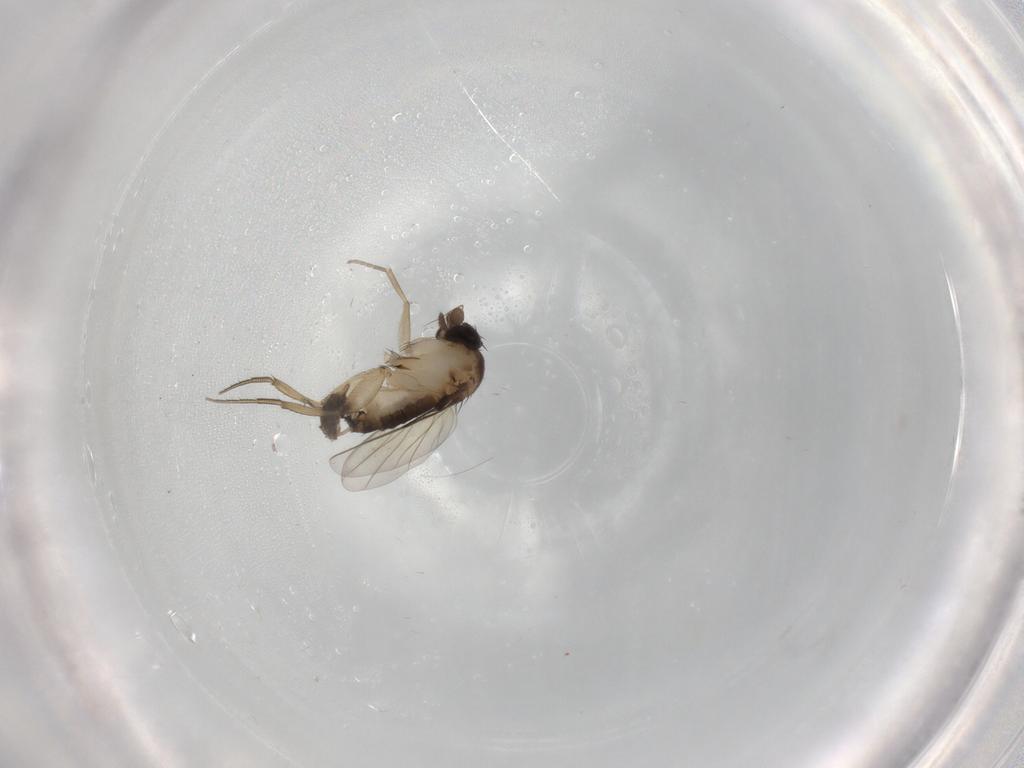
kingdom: Animalia
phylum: Arthropoda
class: Insecta
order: Diptera
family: Phoridae
